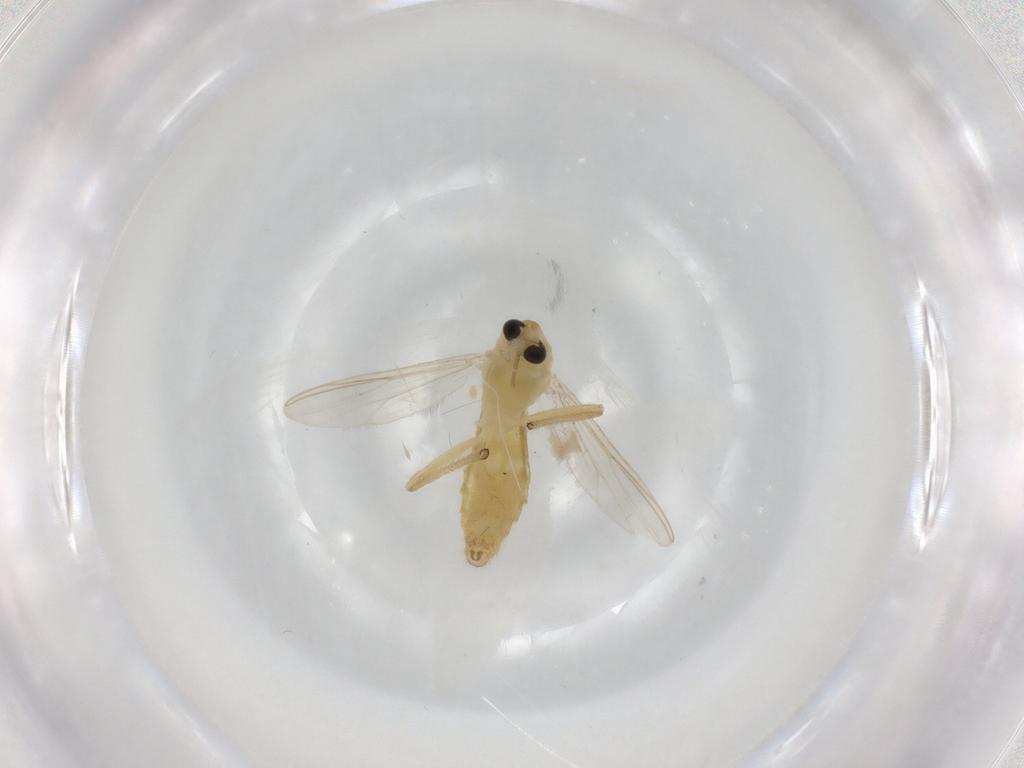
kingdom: Animalia
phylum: Arthropoda
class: Insecta
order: Diptera
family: Chironomidae
